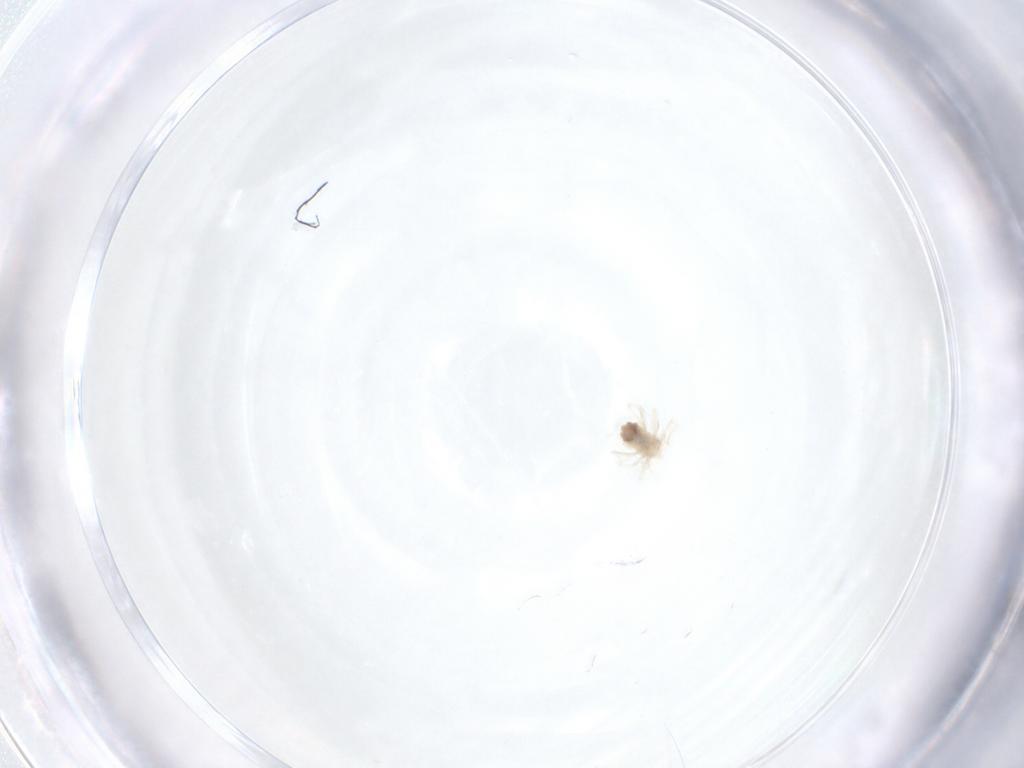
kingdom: Animalia
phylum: Arthropoda
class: Arachnida
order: Trombidiformes
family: Anystidae
